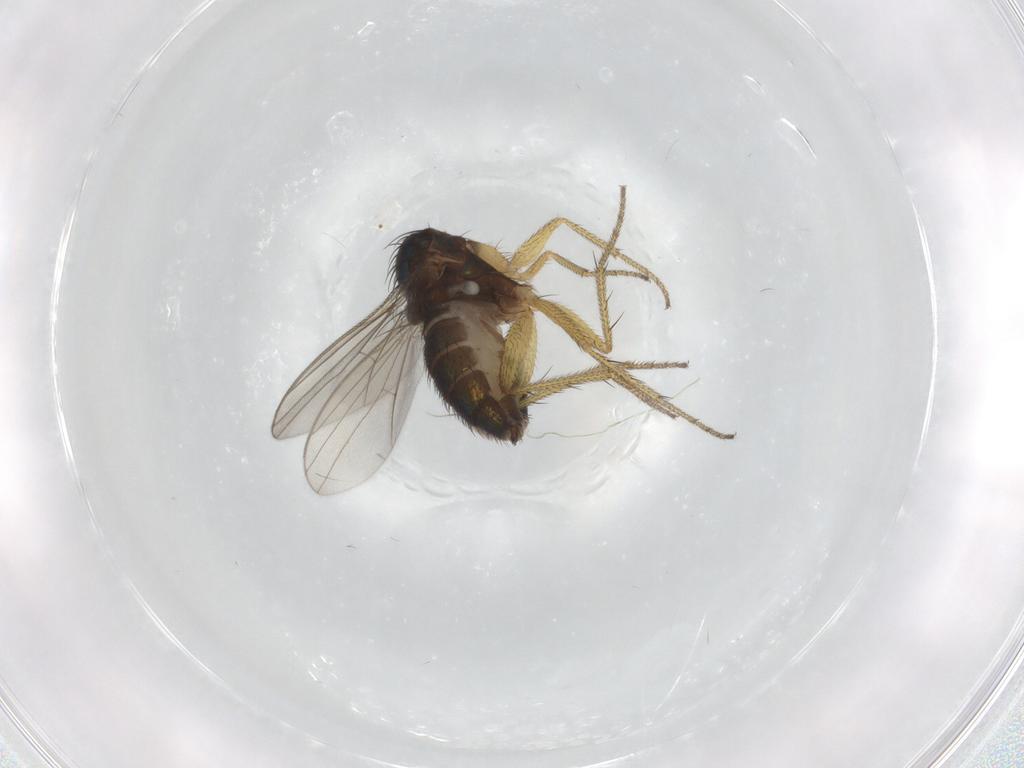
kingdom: Animalia
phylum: Arthropoda
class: Insecta
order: Diptera
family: Dolichopodidae
